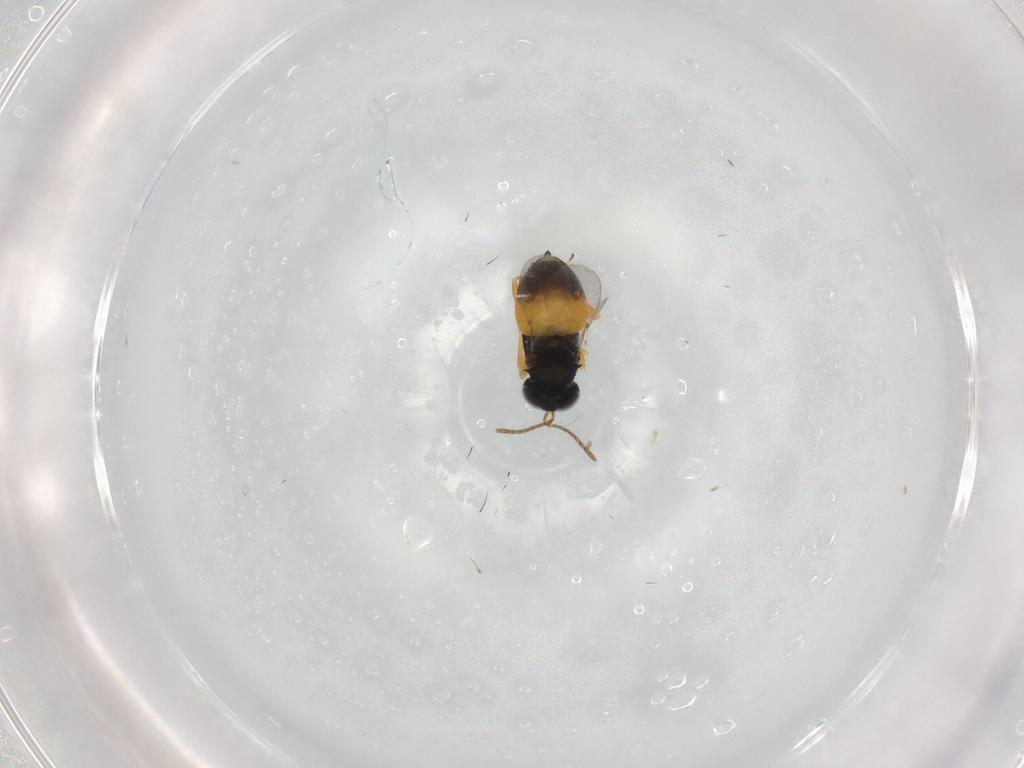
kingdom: Animalia
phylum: Arthropoda
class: Insecta
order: Hymenoptera
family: Encyrtidae
